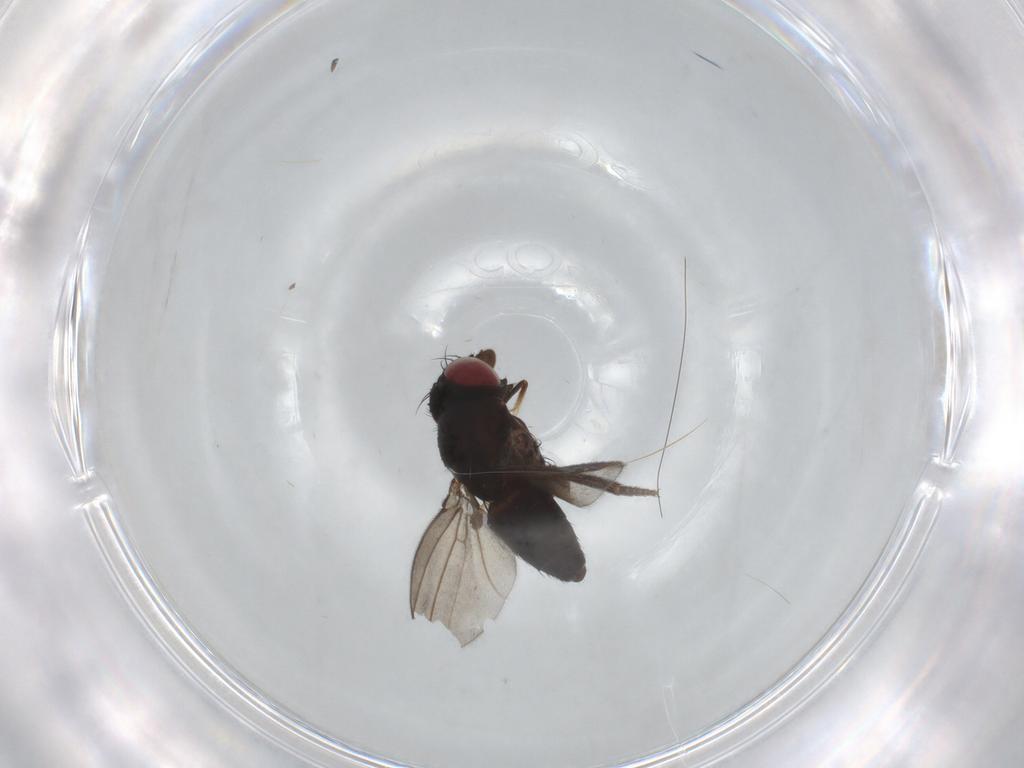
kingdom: Animalia
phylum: Arthropoda
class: Insecta
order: Diptera
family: Milichiidae
